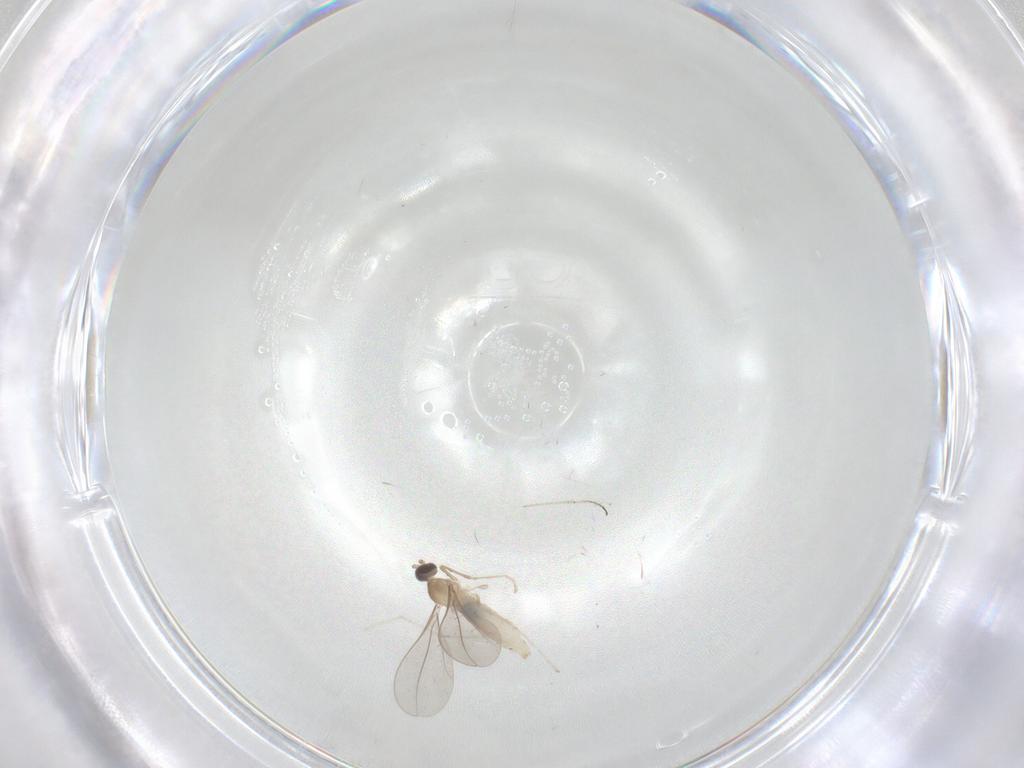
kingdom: Animalia
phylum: Arthropoda
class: Insecta
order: Diptera
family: Cecidomyiidae
